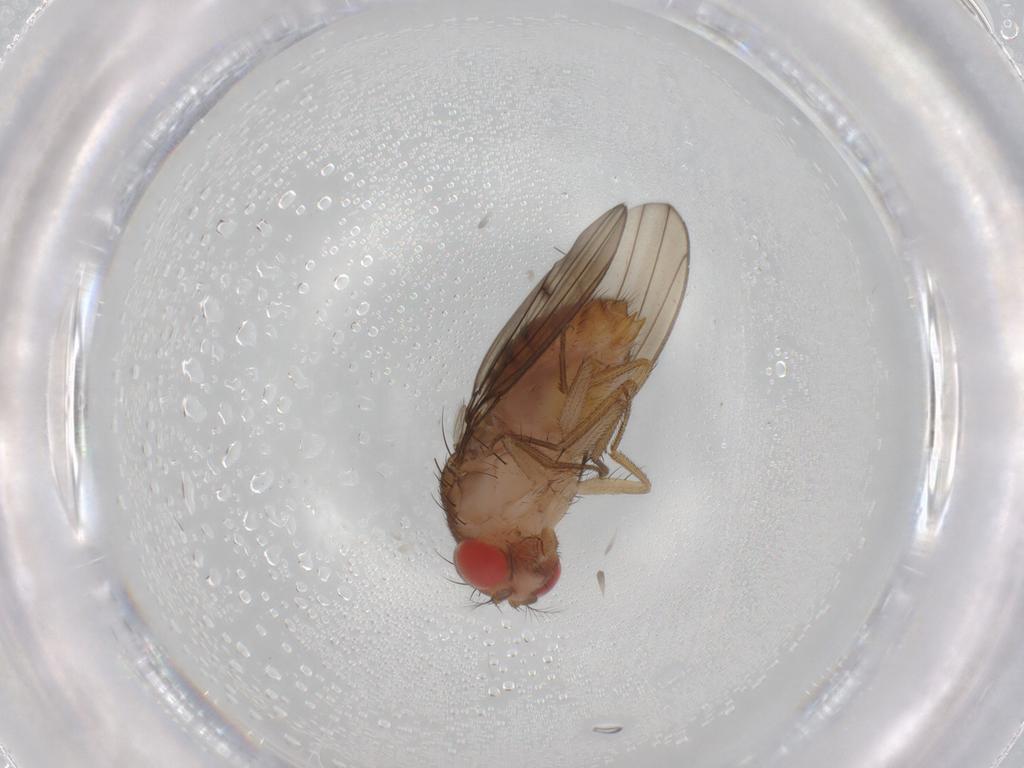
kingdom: Animalia
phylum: Arthropoda
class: Insecta
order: Diptera
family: Drosophilidae
